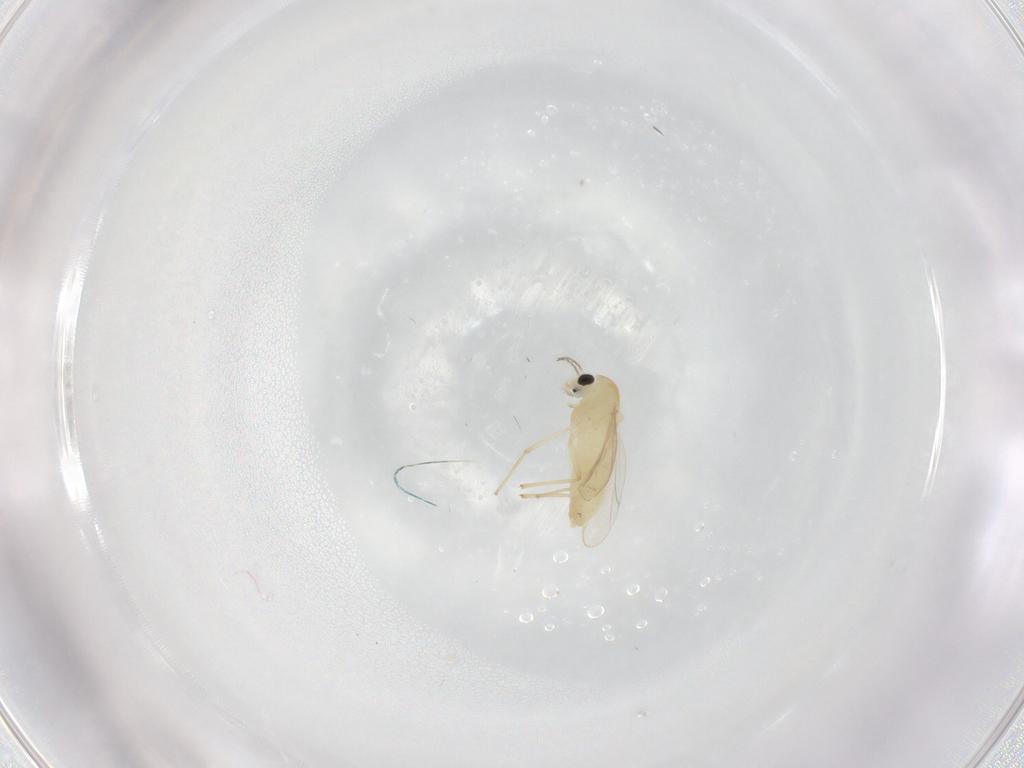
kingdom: Animalia
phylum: Arthropoda
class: Insecta
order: Diptera
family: Chironomidae
